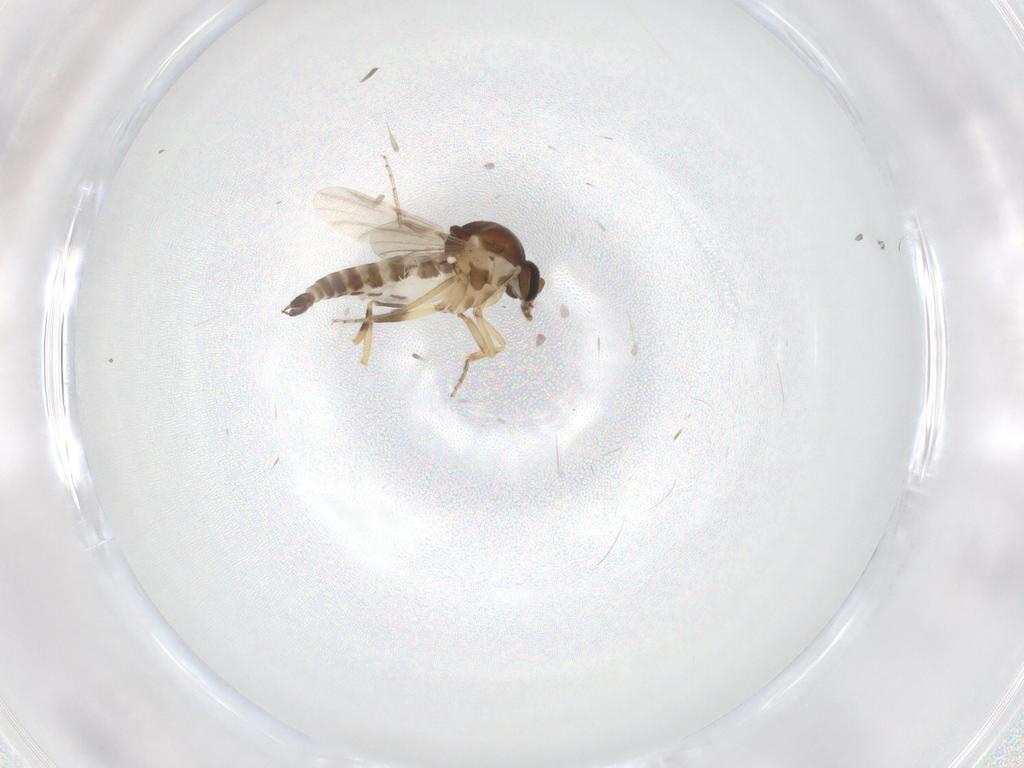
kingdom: Animalia
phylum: Arthropoda
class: Insecta
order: Diptera
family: Ceratopogonidae
